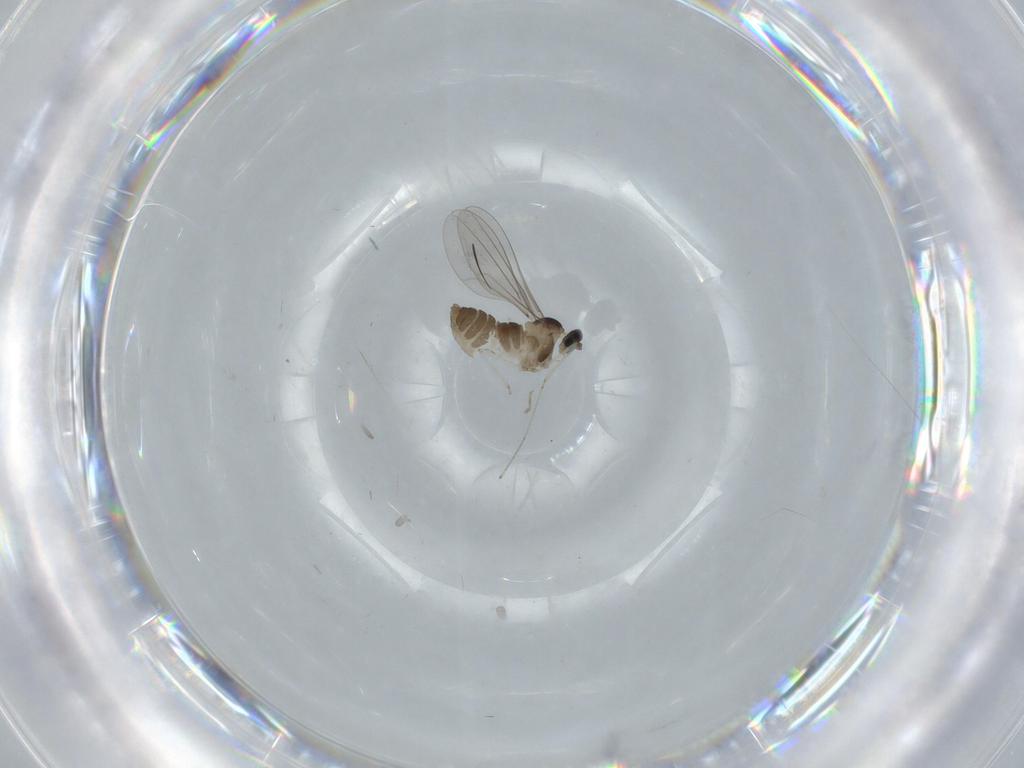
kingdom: Animalia
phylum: Arthropoda
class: Insecta
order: Diptera
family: Cecidomyiidae
